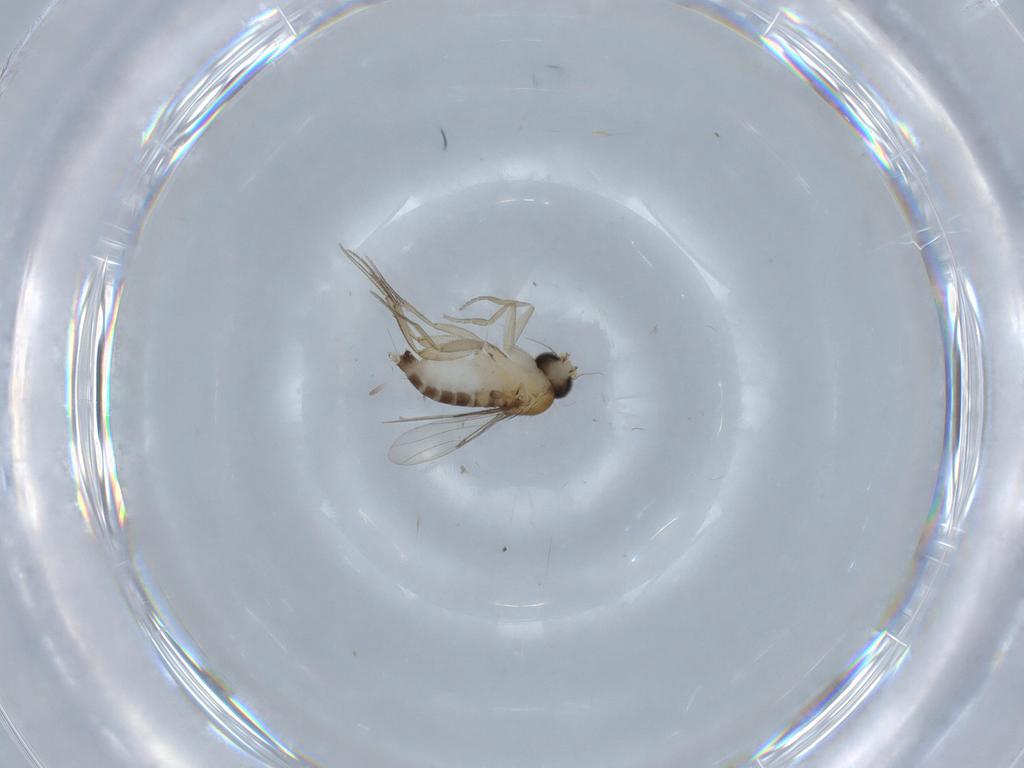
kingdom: Animalia
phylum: Arthropoda
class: Insecta
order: Diptera
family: Phoridae
